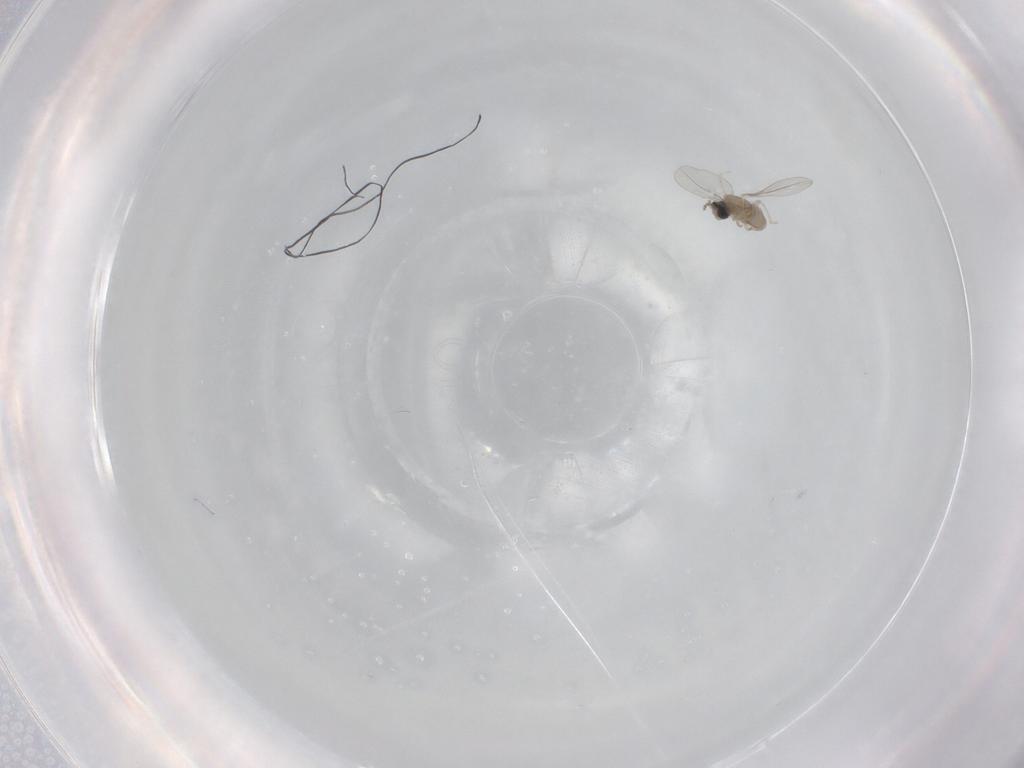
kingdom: Animalia
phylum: Arthropoda
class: Insecta
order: Diptera
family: Cecidomyiidae
